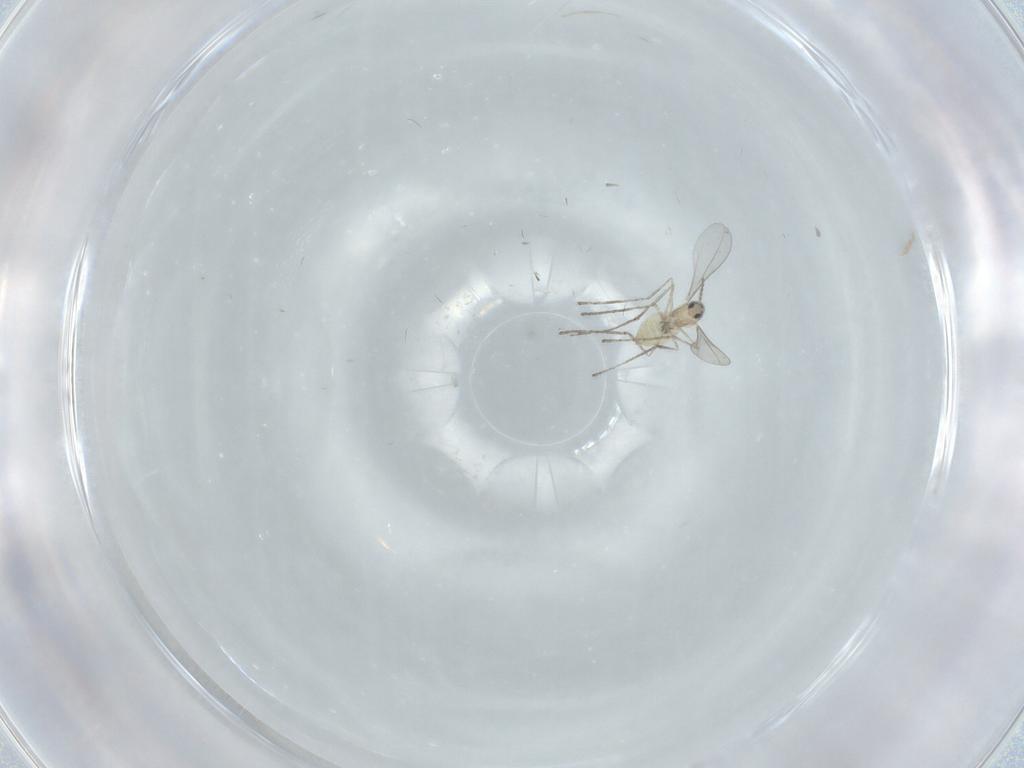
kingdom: Animalia
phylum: Arthropoda
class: Insecta
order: Diptera
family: Cecidomyiidae
